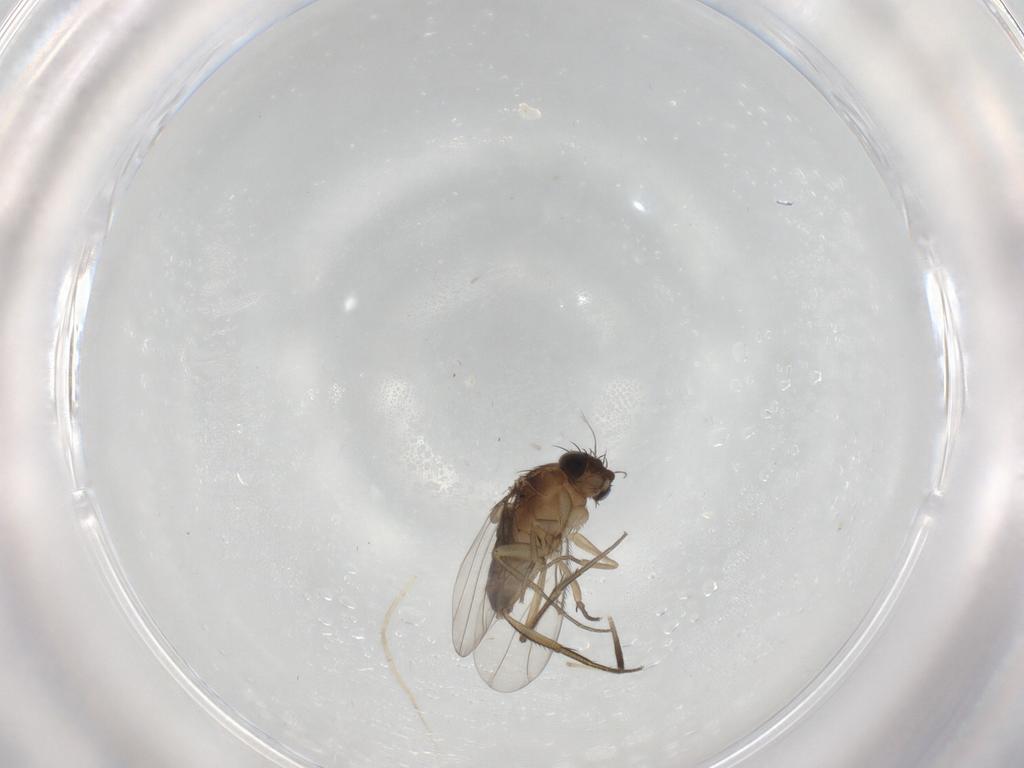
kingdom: Animalia
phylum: Arthropoda
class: Insecta
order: Diptera
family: Phoridae
